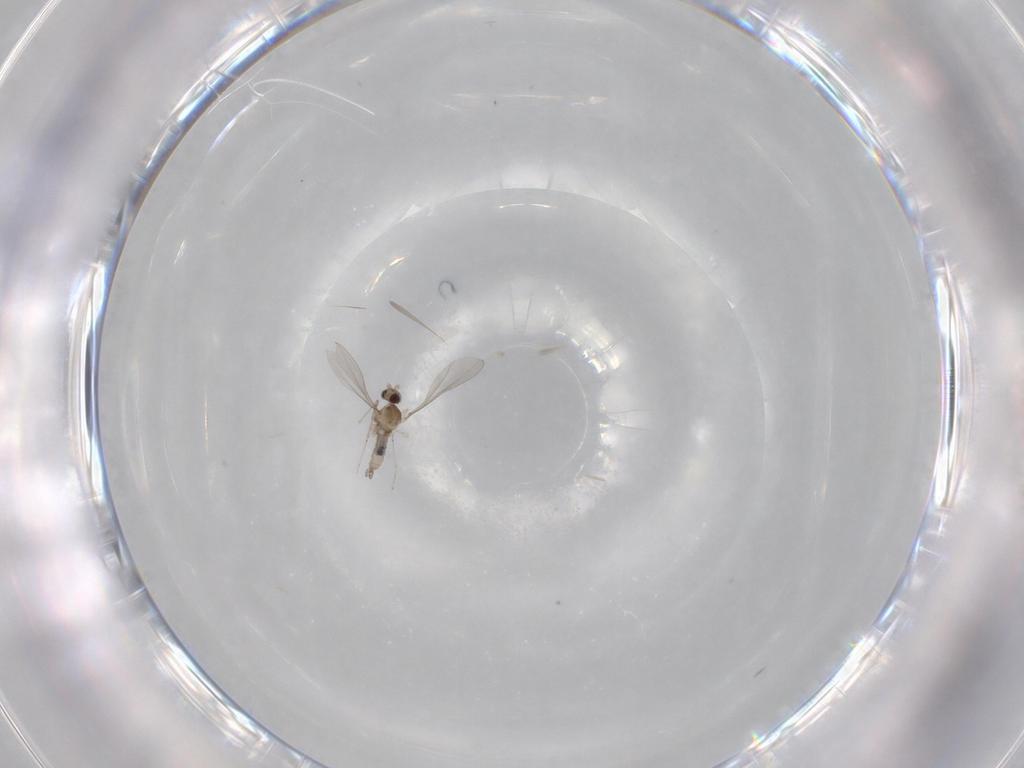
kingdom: Animalia
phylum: Arthropoda
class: Insecta
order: Diptera
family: Cecidomyiidae
